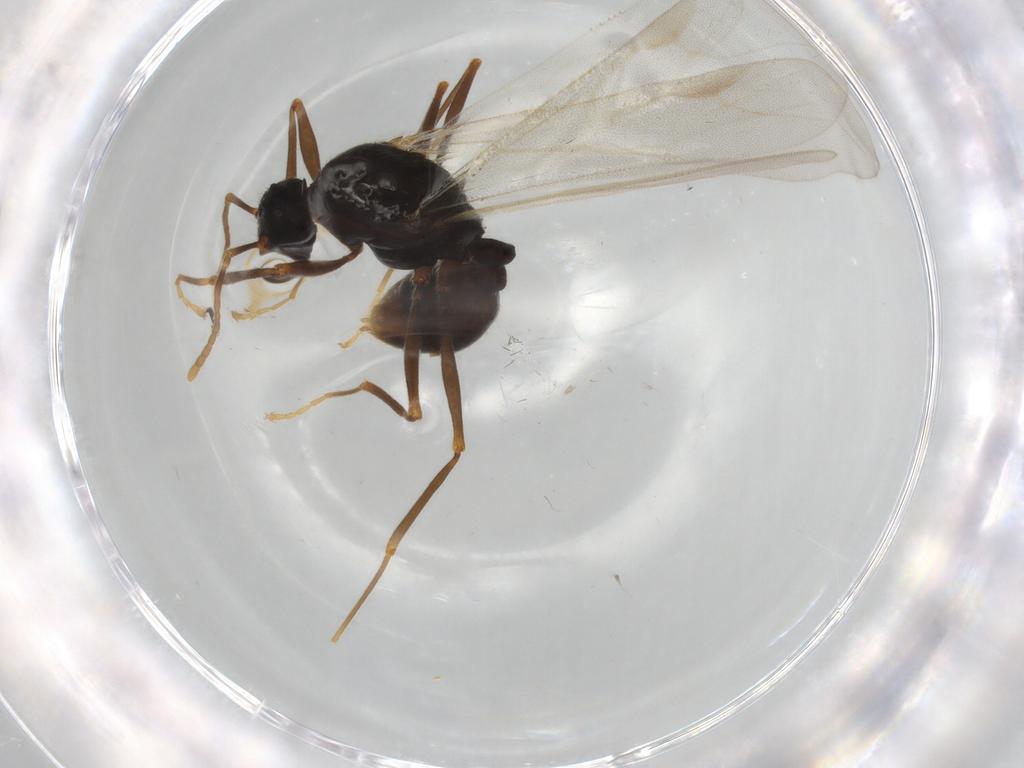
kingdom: Animalia
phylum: Arthropoda
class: Insecta
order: Hymenoptera
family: Formicidae
